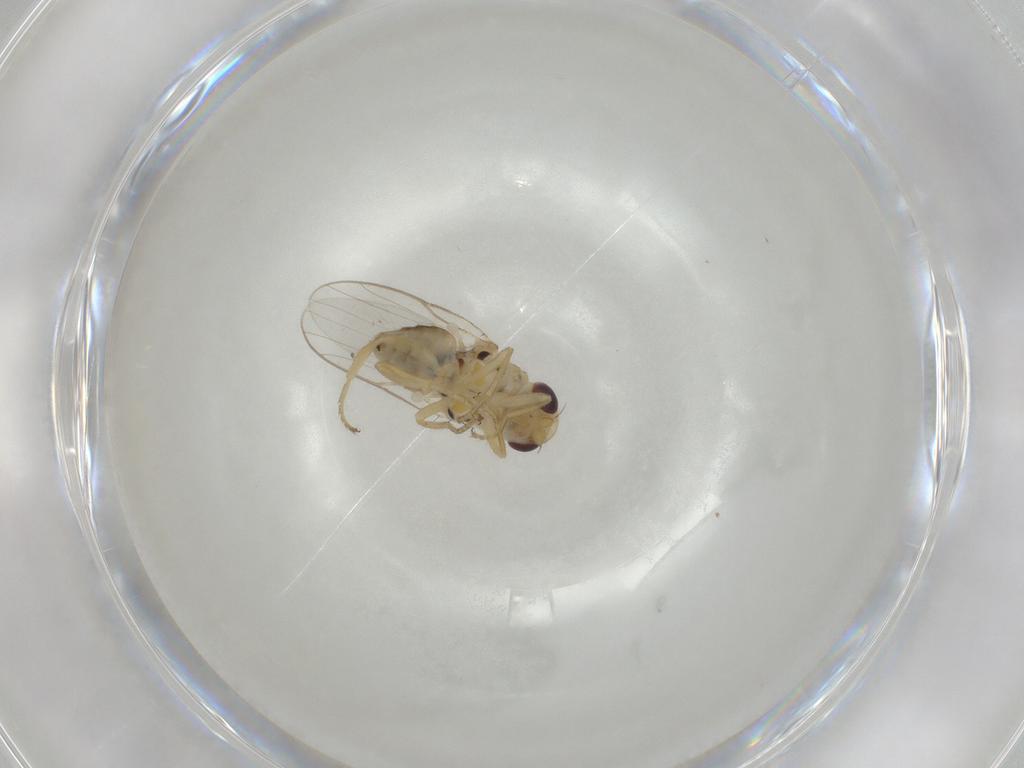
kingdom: Animalia
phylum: Arthropoda
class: Insecta
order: Diptera
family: Chloropidae
